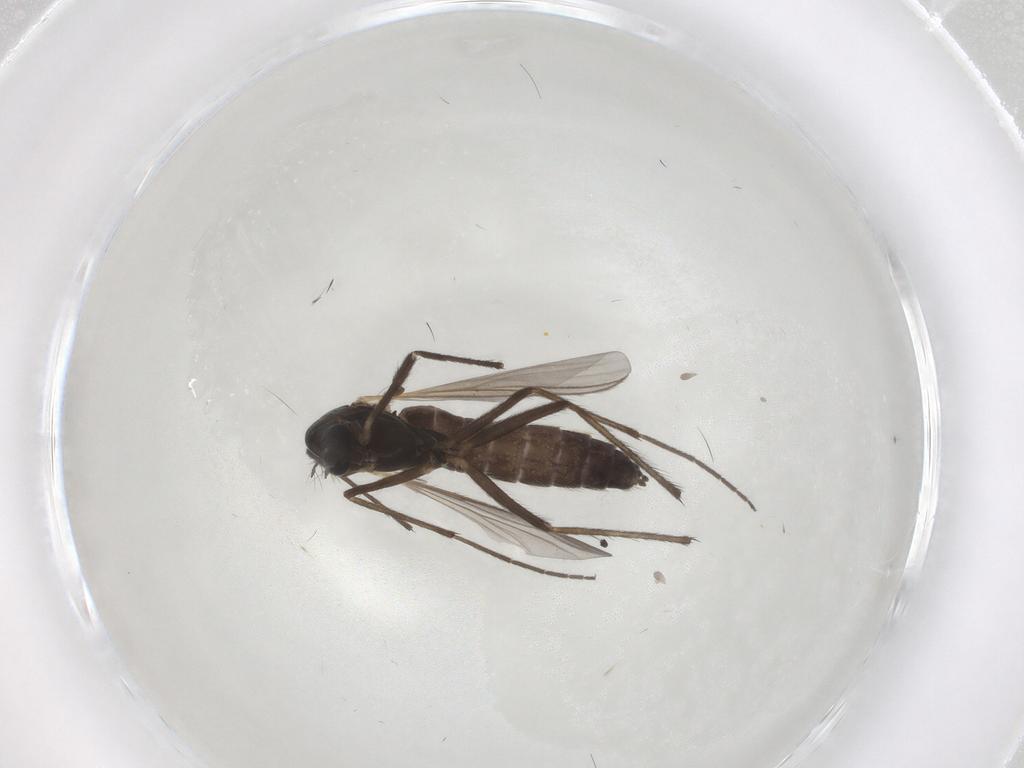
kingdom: Animalia
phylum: Arthropoda
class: Insecta
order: Diptera
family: Chironomidae
